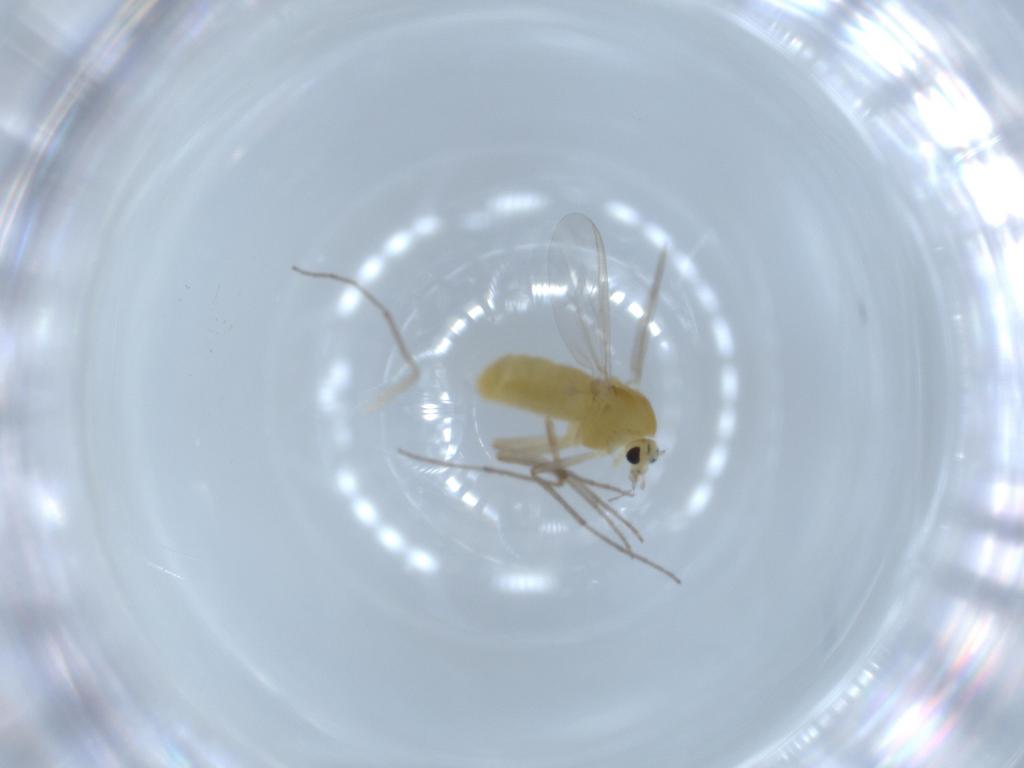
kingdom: Animalia
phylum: Arthropoda
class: Insecta
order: Diptera
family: Chironomidae
